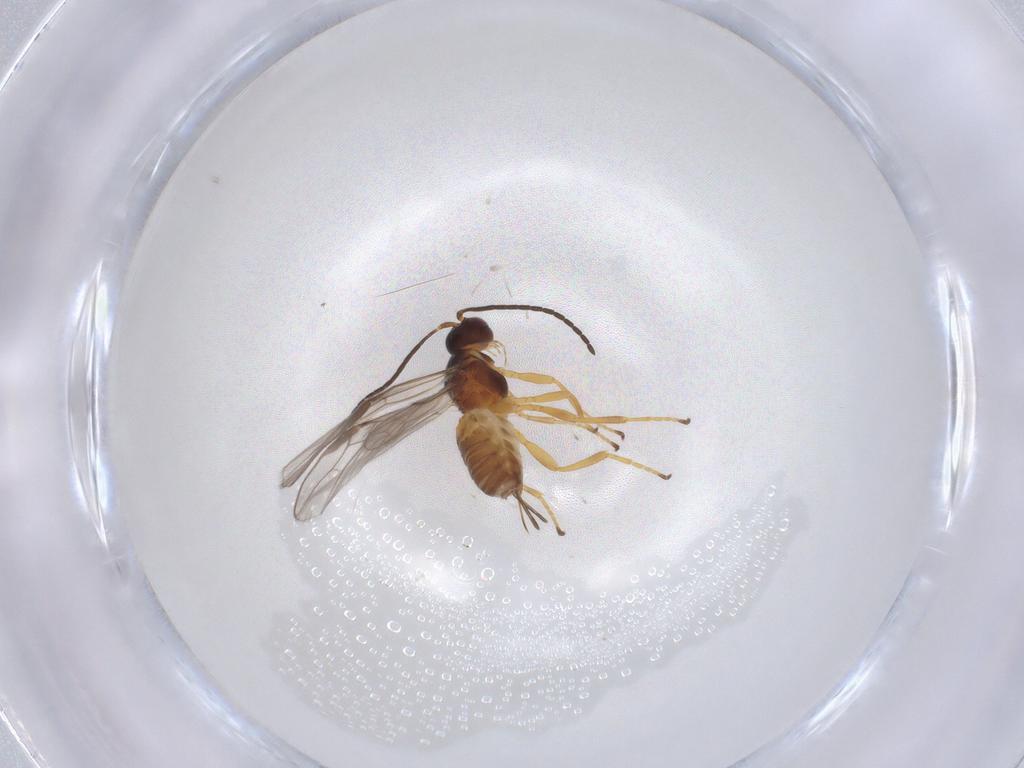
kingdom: Animalia
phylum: Arthropoda
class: Insecta
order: Hymenoptera
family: Braconidae
